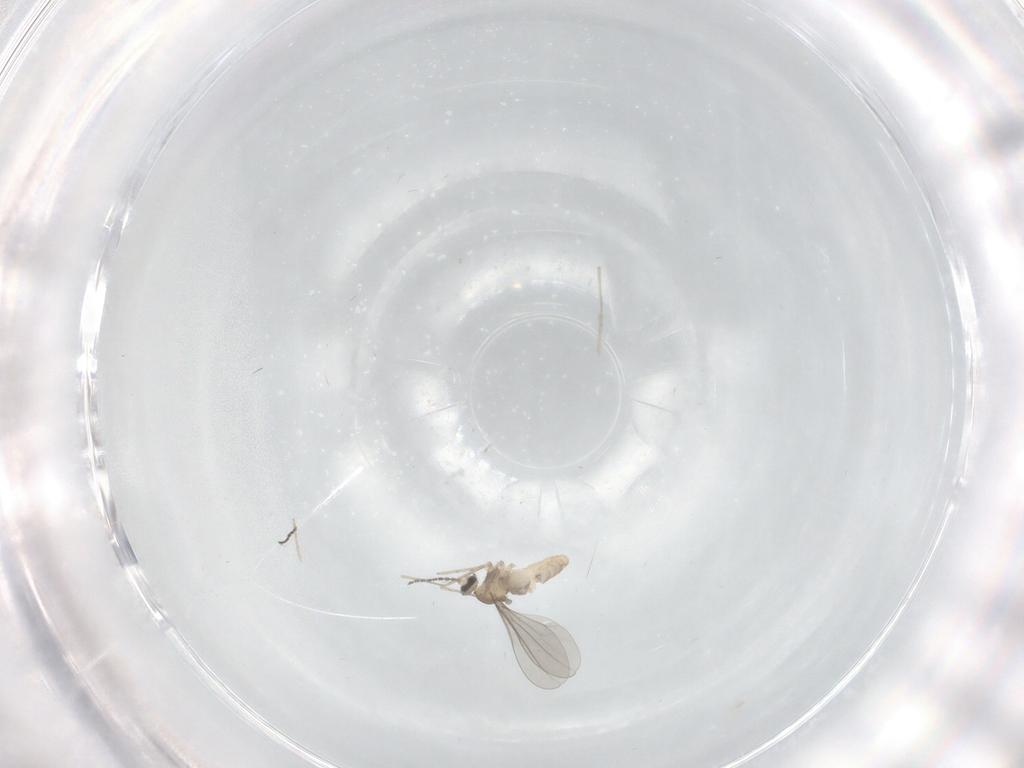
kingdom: Animalia
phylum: Arthropoda
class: Insecta
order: Diptera
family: Cecidomyiidae
